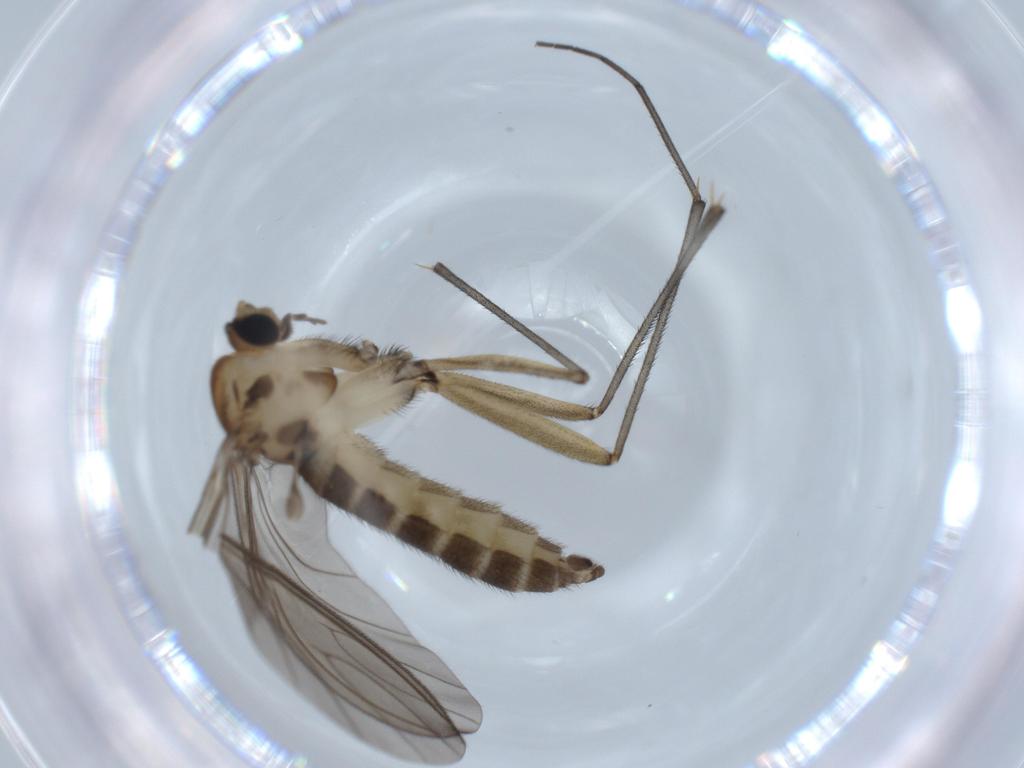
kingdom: Animalia
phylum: Arthropoda
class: Insecta
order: Diptera
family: Sciaridae
